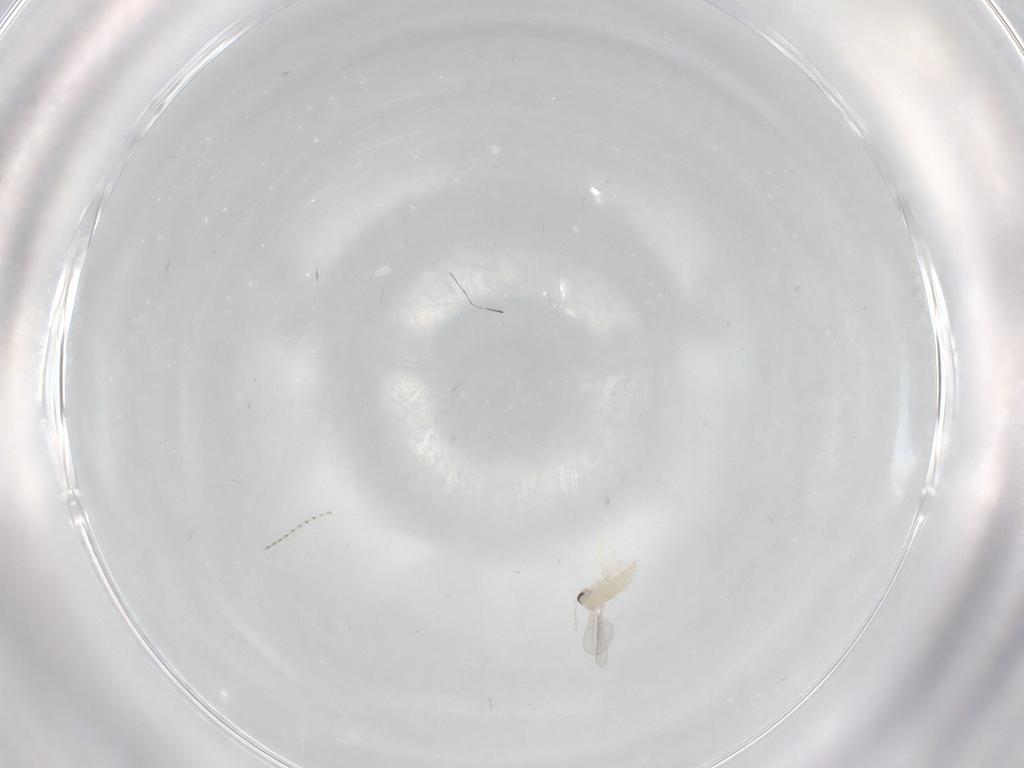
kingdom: Animalia
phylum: Arthropoda
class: Insecta
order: Diptera
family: Cecidomyiidae
